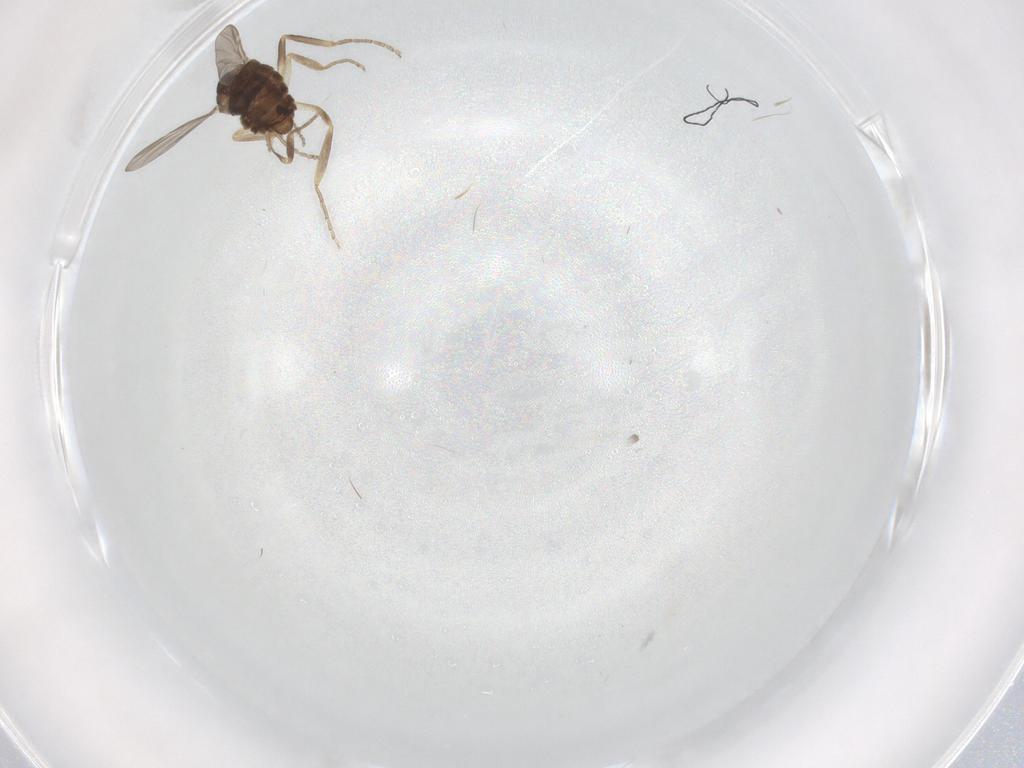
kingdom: Animalia
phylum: Arthropoda
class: Insecta
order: Diptera
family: Ceratopogonidae
